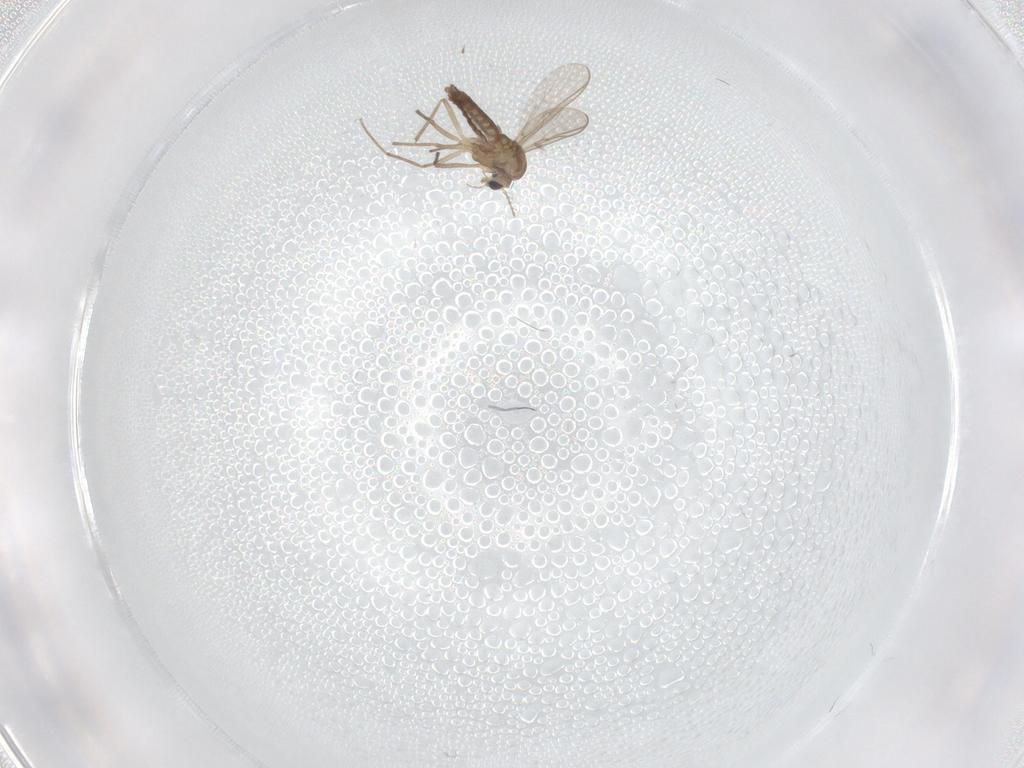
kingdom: Animalia
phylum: Arthropoda
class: Insecta
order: Diptera
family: Chironomidae
